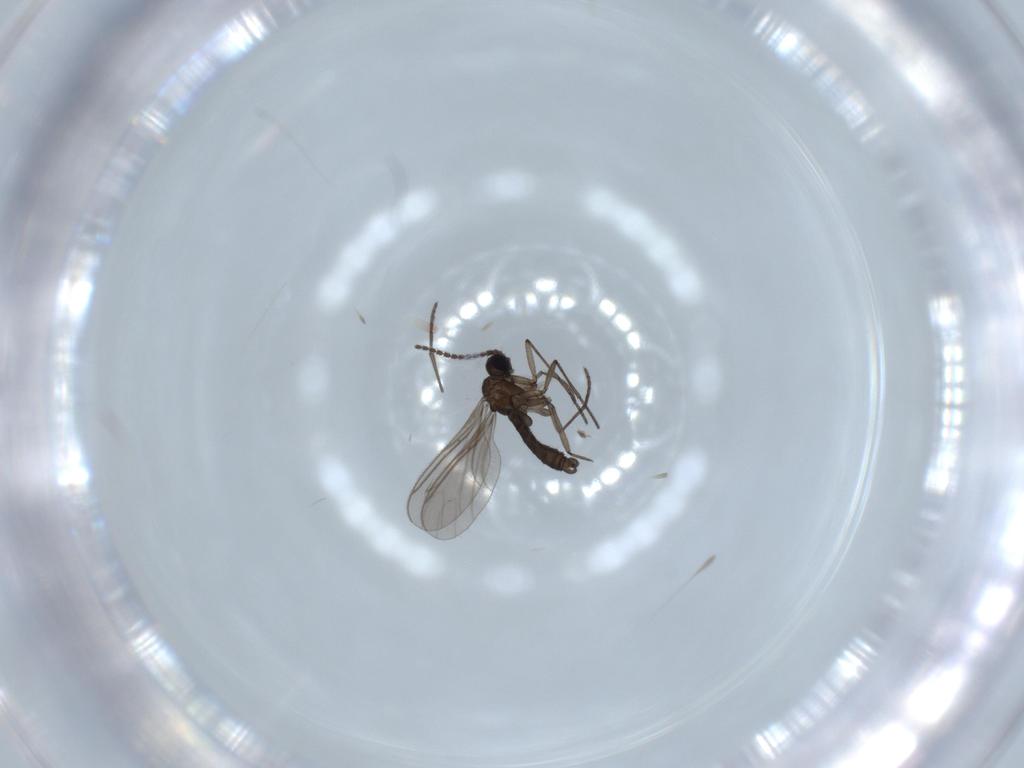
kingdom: Animalia
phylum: Arthropoda
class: Insecta
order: Diptera
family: Sciaridae
